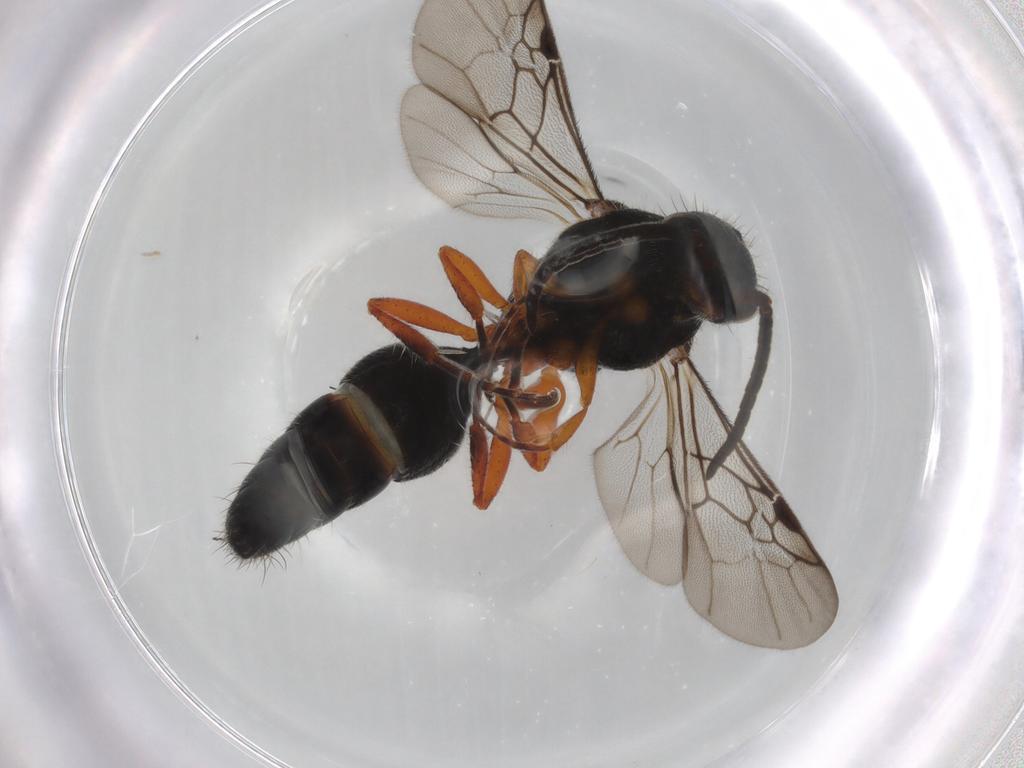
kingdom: Animalia
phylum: Arthropoda
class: Insecta
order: Hymenoptera
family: Mutillidae
